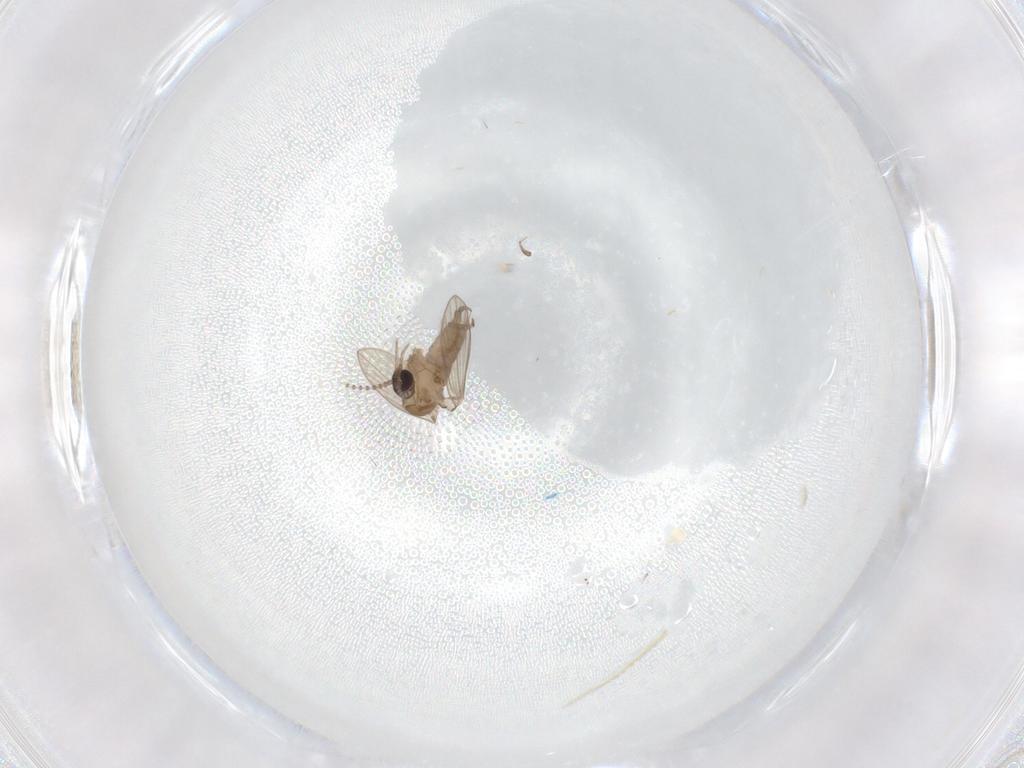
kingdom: Animalia
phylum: Arthropoda
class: Insecta
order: Diptera
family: Psychodidae
